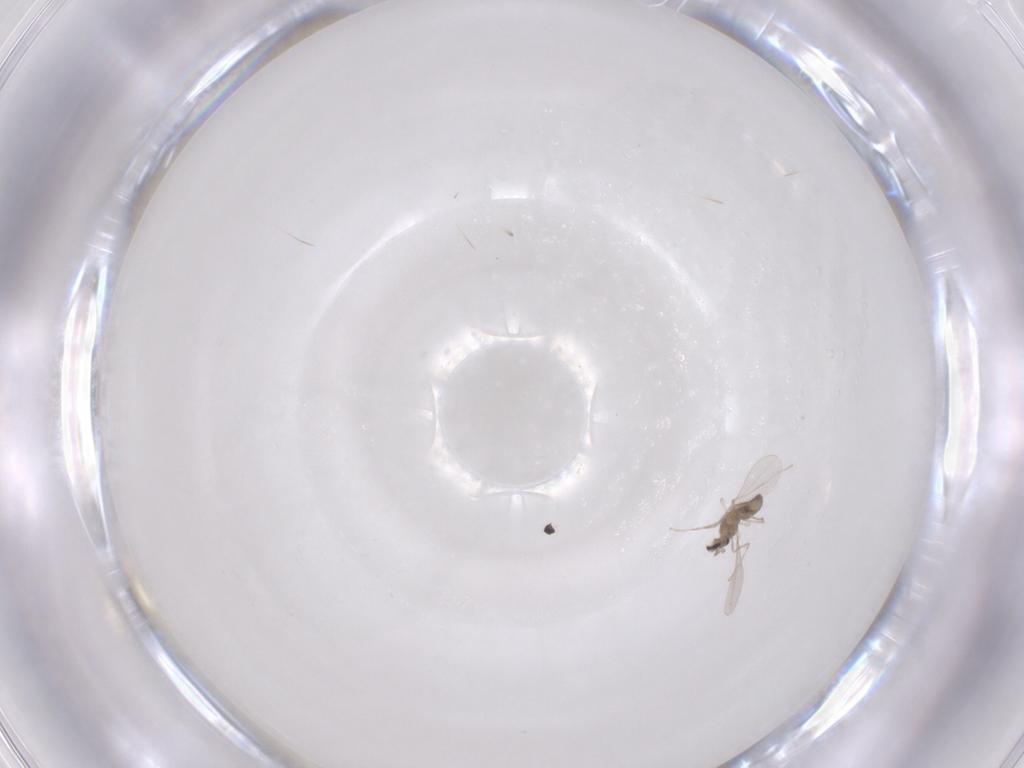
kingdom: Animalia
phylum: Arthropoda
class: Insecta
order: Diptera
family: Cecidomyiidae
